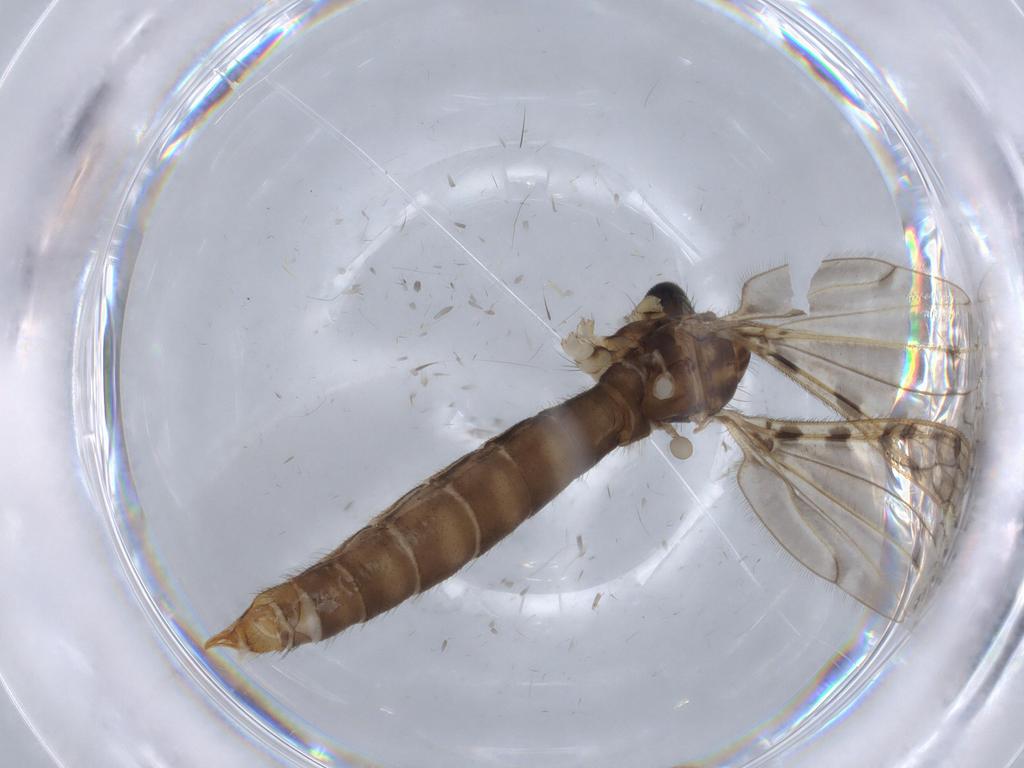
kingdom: Animalia
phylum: Arthropoda
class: Insecta
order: Diptera
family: Psychodidae
